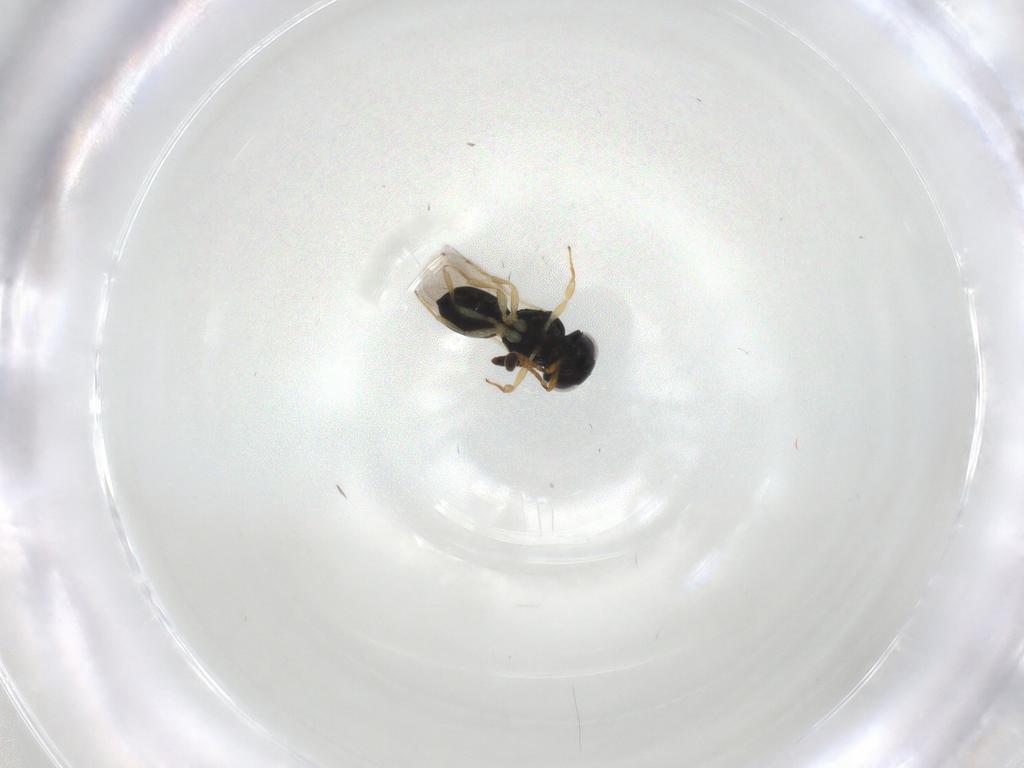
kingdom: Animalia
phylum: Arthropoda
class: Insecta
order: Hymenoptera
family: Scelionidae
